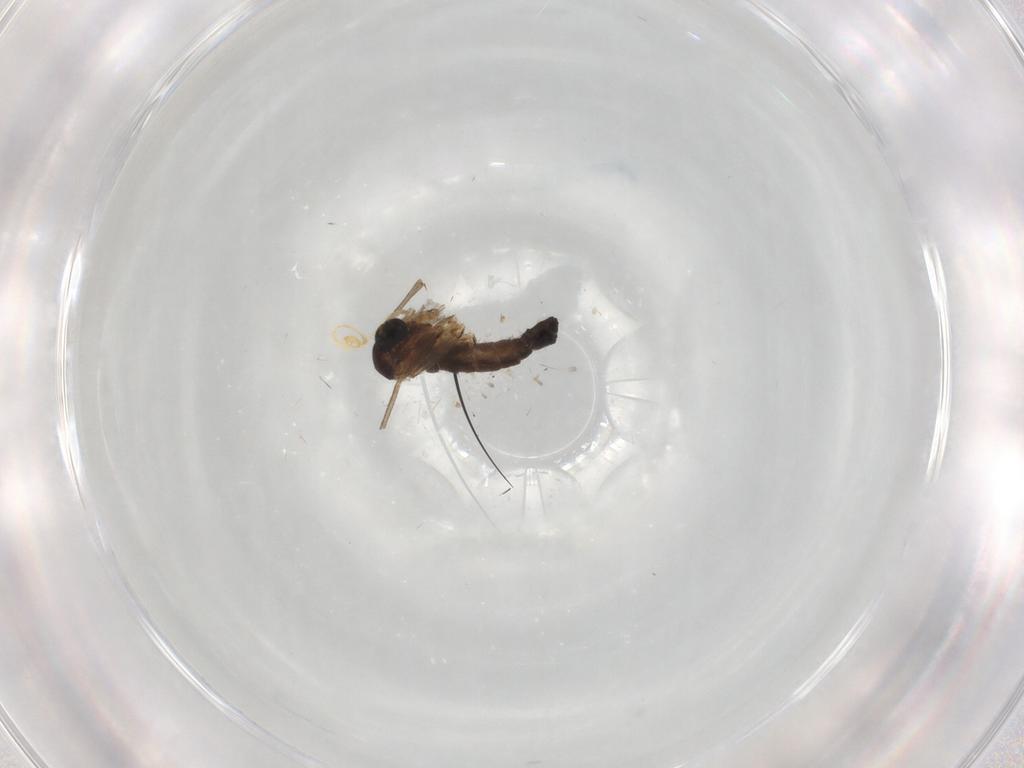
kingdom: Animalia
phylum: Arthropoda
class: Insecta
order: Diptera
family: Sciaridae
